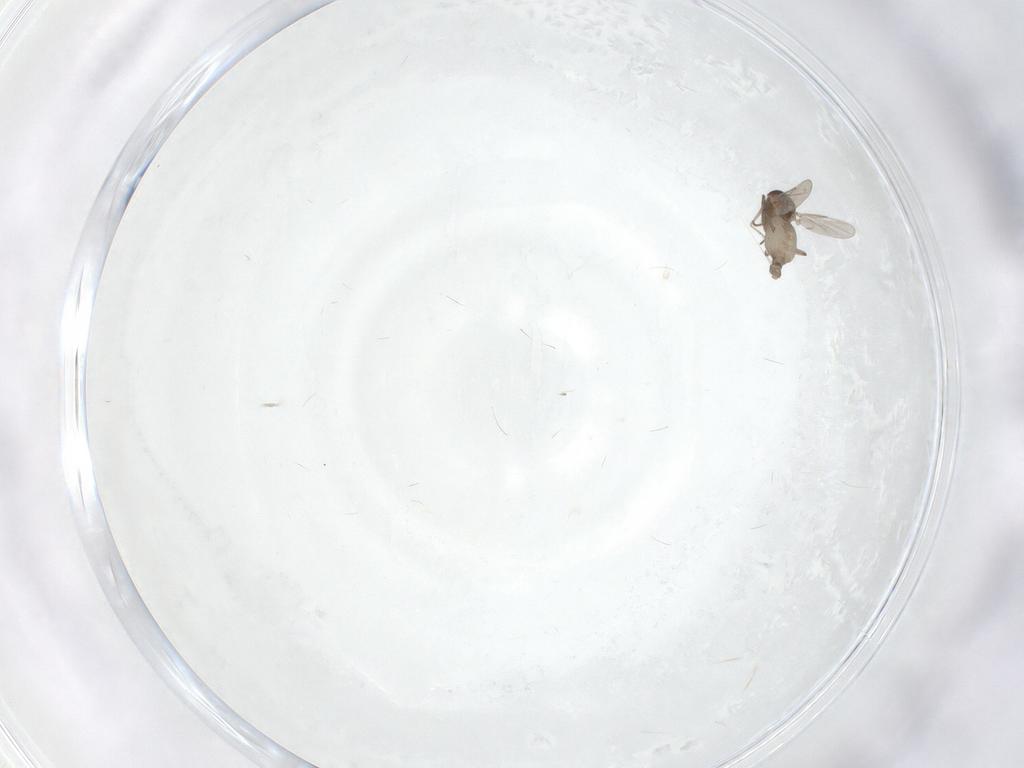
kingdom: Animalia
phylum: Arthropoda
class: Insecta
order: Diptera
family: Ceratopogonidae
